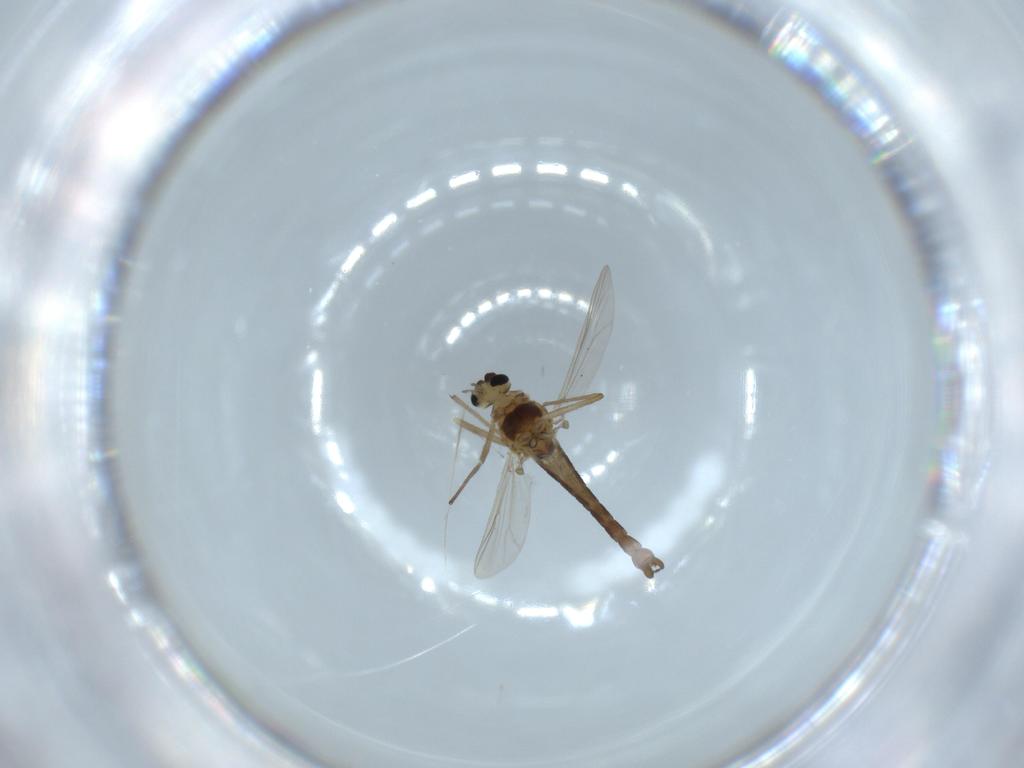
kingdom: Animalia
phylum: Arthropoda
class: Insecta
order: Diptera
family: Chironomidae
